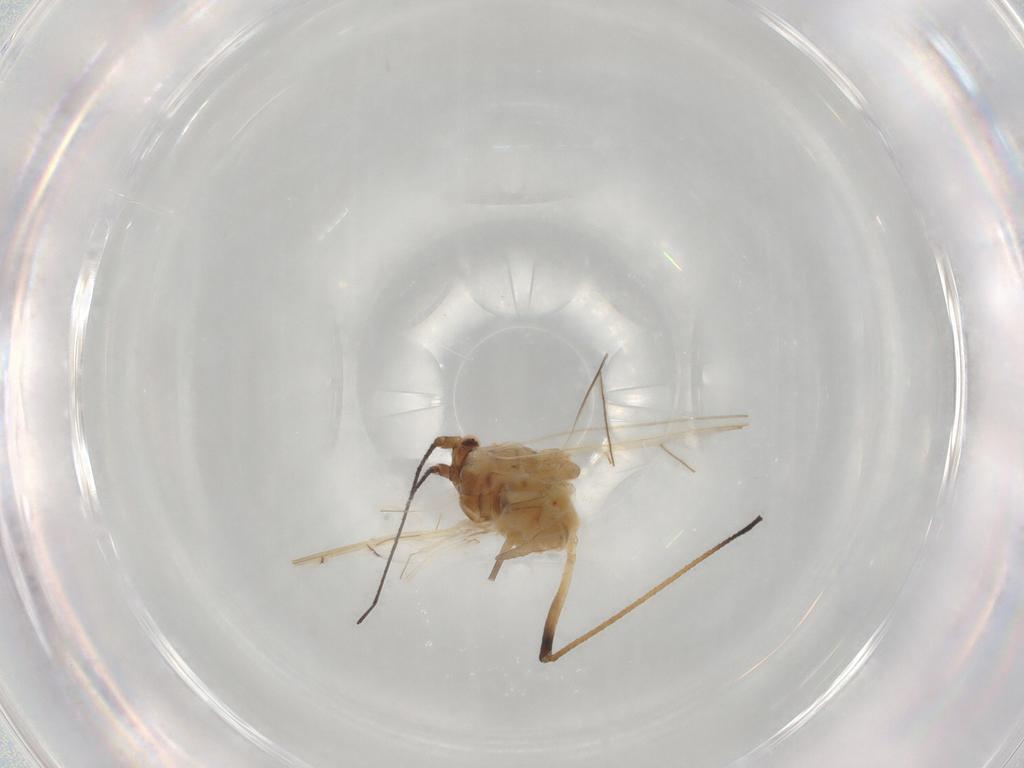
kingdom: Animalia
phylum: Arthropoda
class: Insecta
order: Hemiptera
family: Aphididae
